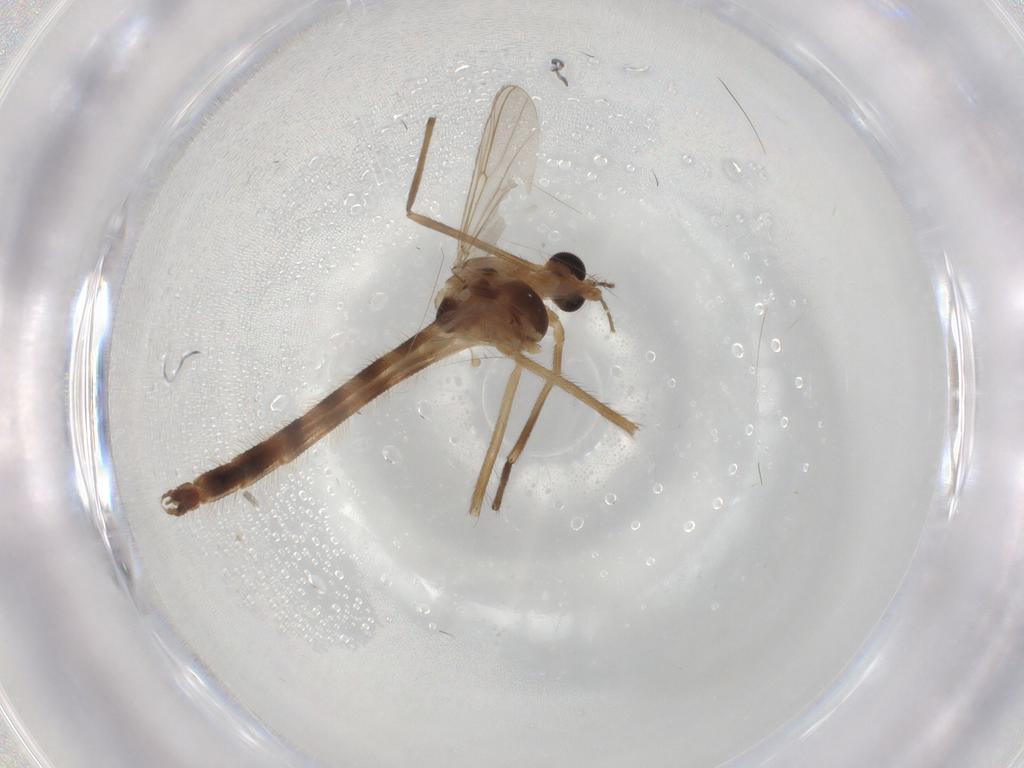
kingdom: Animalia
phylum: Arthropoda
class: Insecta
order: Diptera
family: Chironomidae
